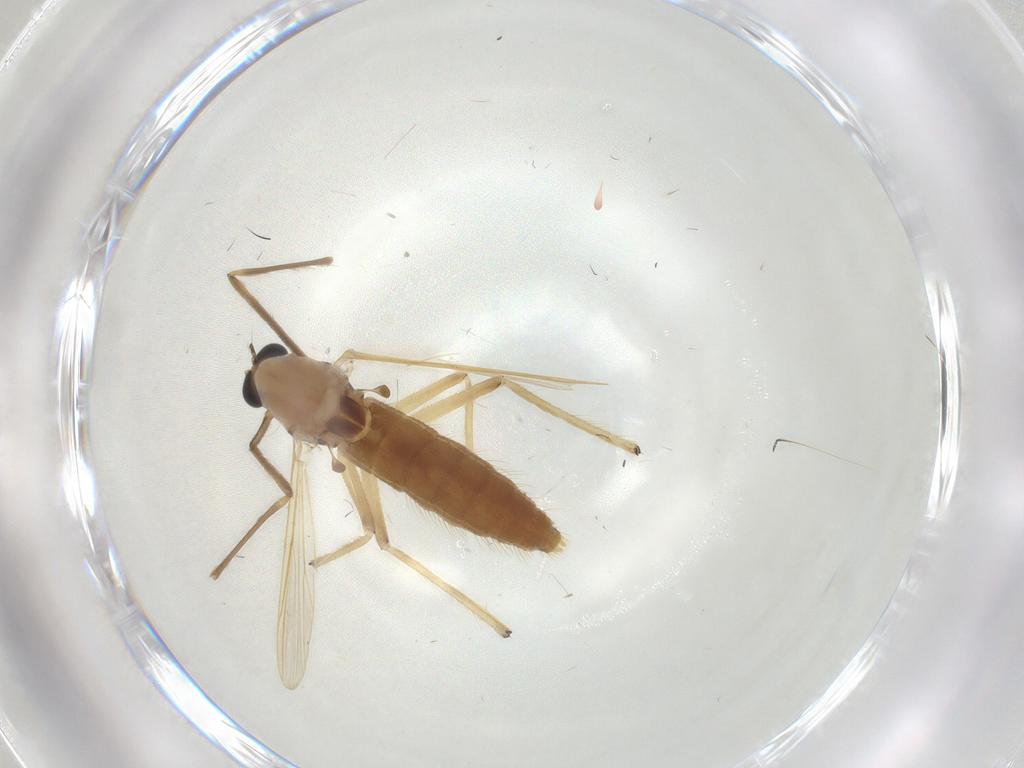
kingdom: Animalia
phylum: Arthropoda
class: Insecta
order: Diptera
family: Chironomidae
